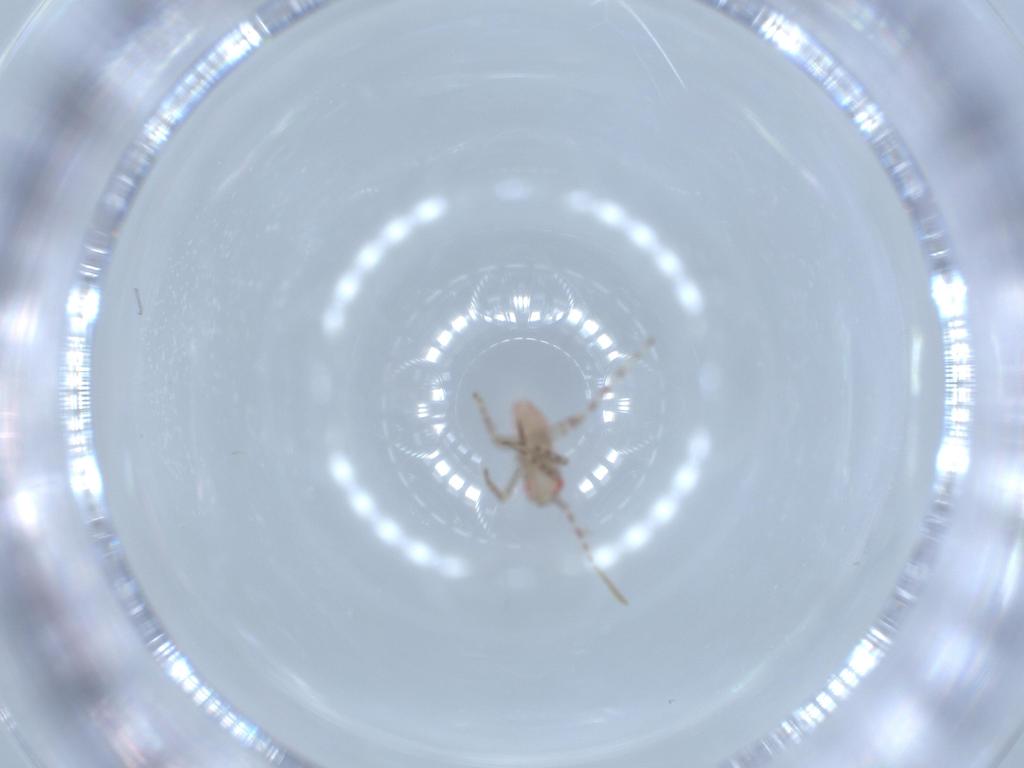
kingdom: Animalia
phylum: Arthropoda
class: Insecta
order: Hemiptera
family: Miridae
